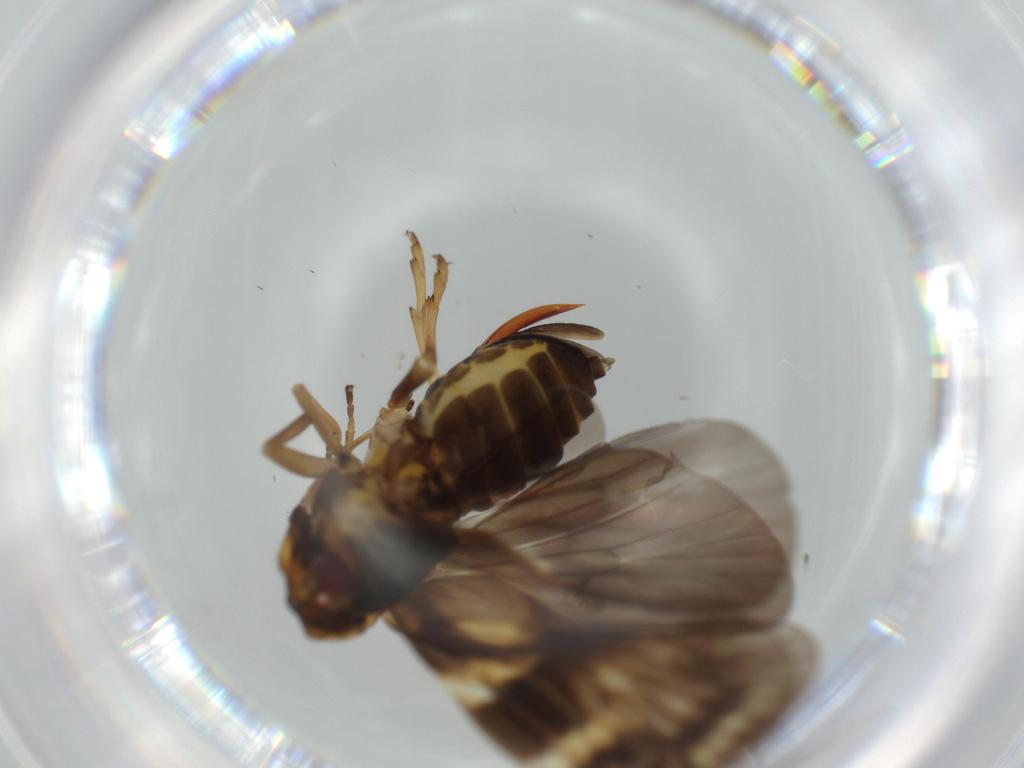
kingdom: Animalia
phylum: Arthropoda
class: Insecta
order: Hemiptera
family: Cixiidae
